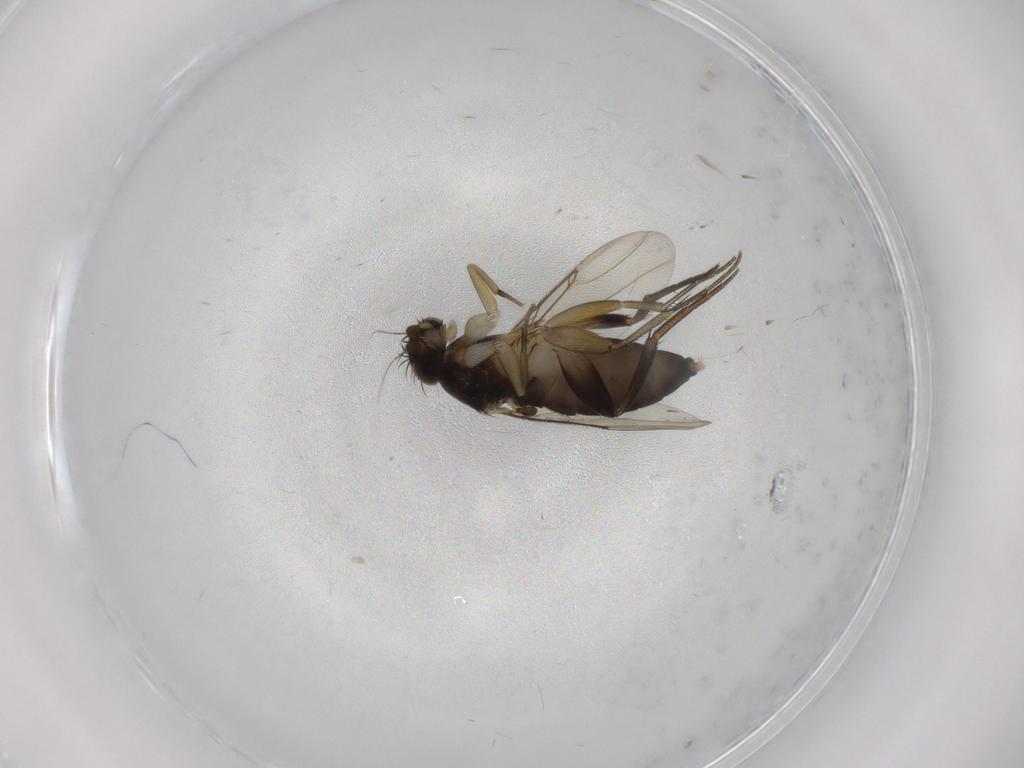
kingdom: Animalia
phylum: Arthropoda
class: Insecta
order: Diptera
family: Phoridae
